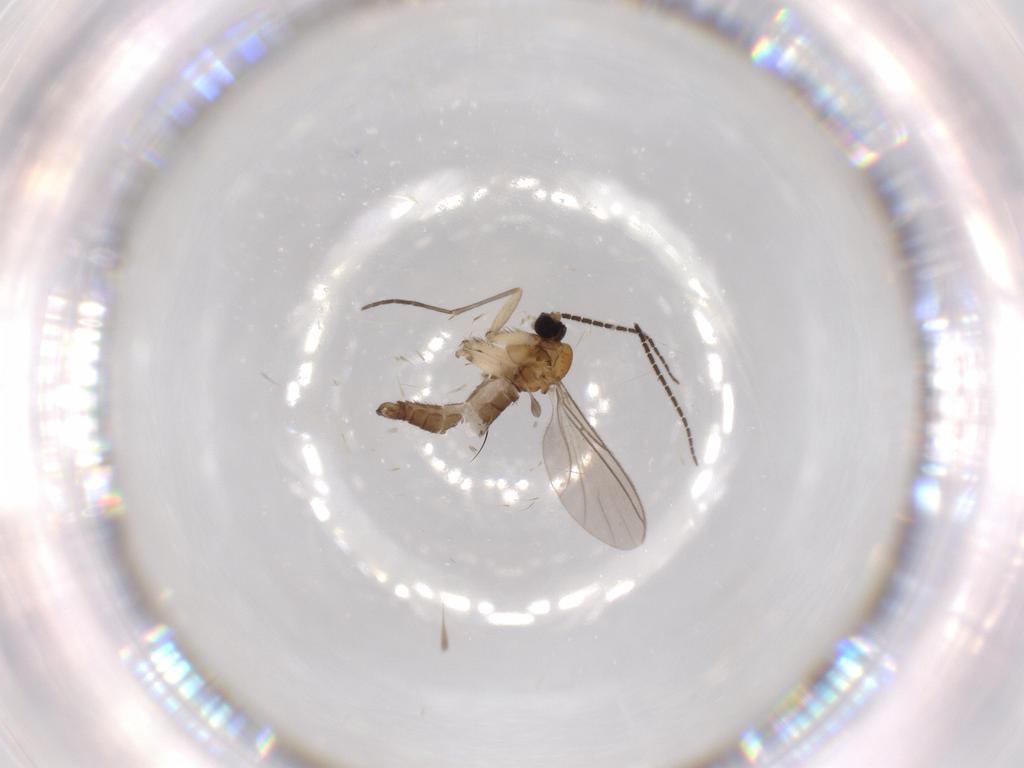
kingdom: Animalia
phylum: Arthropoda
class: Insecta
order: Diptera
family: Sciaridae
